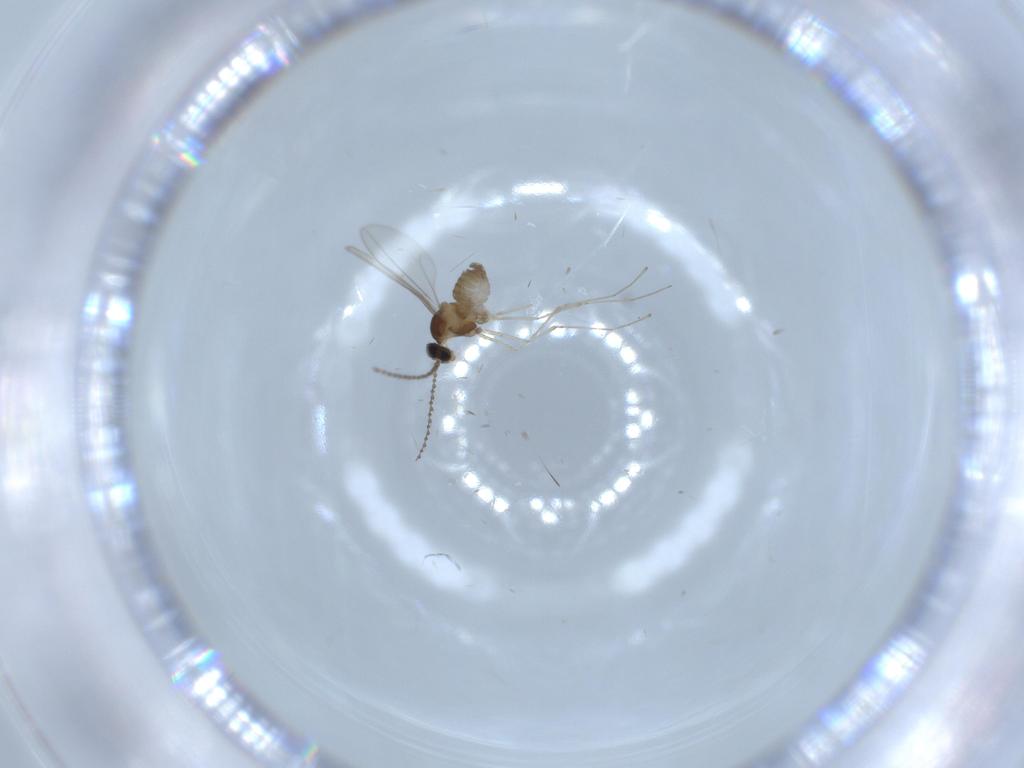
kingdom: Animalia
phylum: Arthropoda
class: Insecta
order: Diptera
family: Cecidomyiidae
